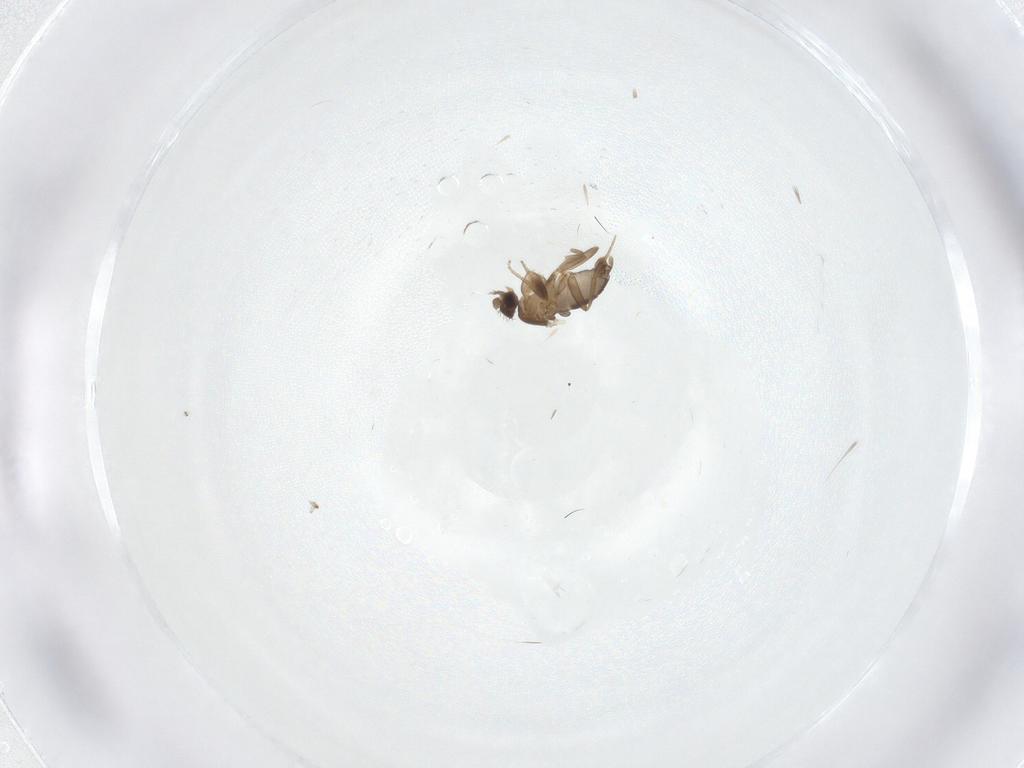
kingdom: Animalia
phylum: Arthropoda
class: Insecta
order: Diptera
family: Phoridae
